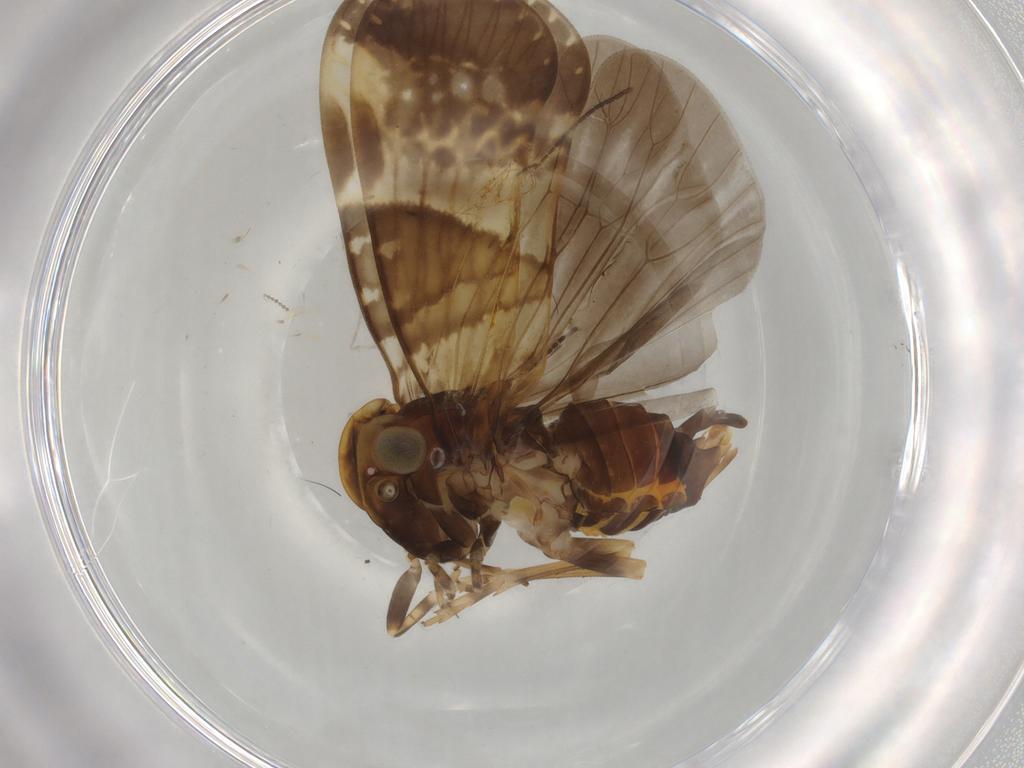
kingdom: Animalia
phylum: Arthropoda
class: Insecta
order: Hemiptera
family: Cixiidae
